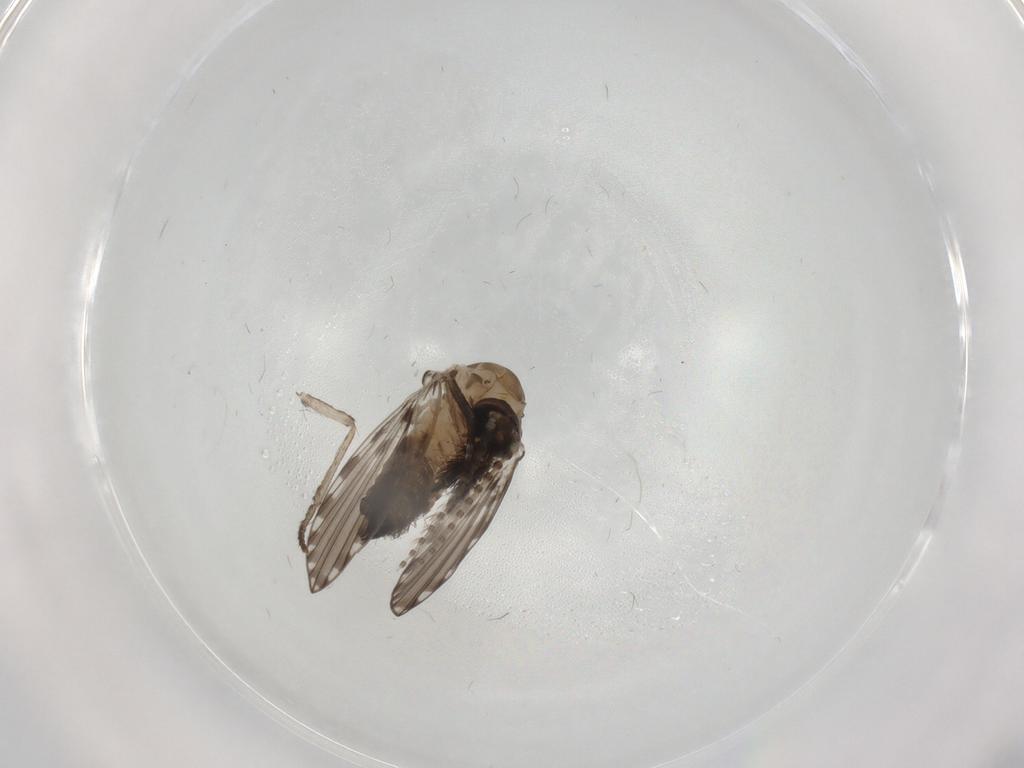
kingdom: Animalia
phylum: Arthropoda
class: Insecta
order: Diptera
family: Psychodidae
